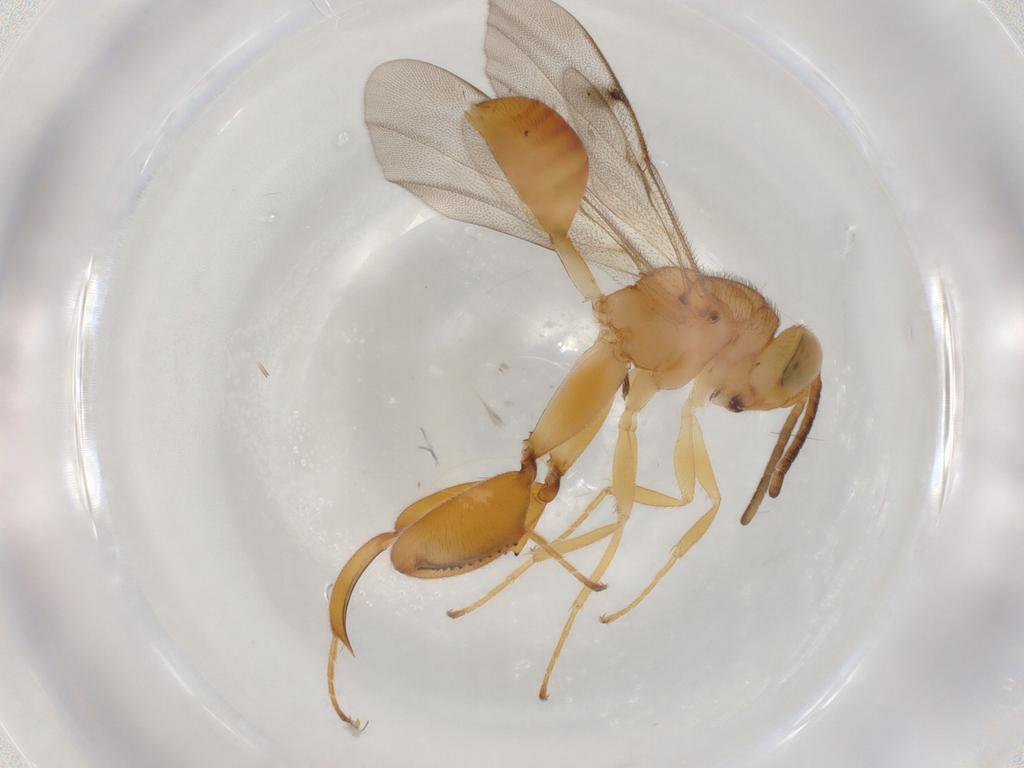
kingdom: Animalia
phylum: Arthropoda
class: Insecta
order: Hymenoptera
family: Chalcididae
